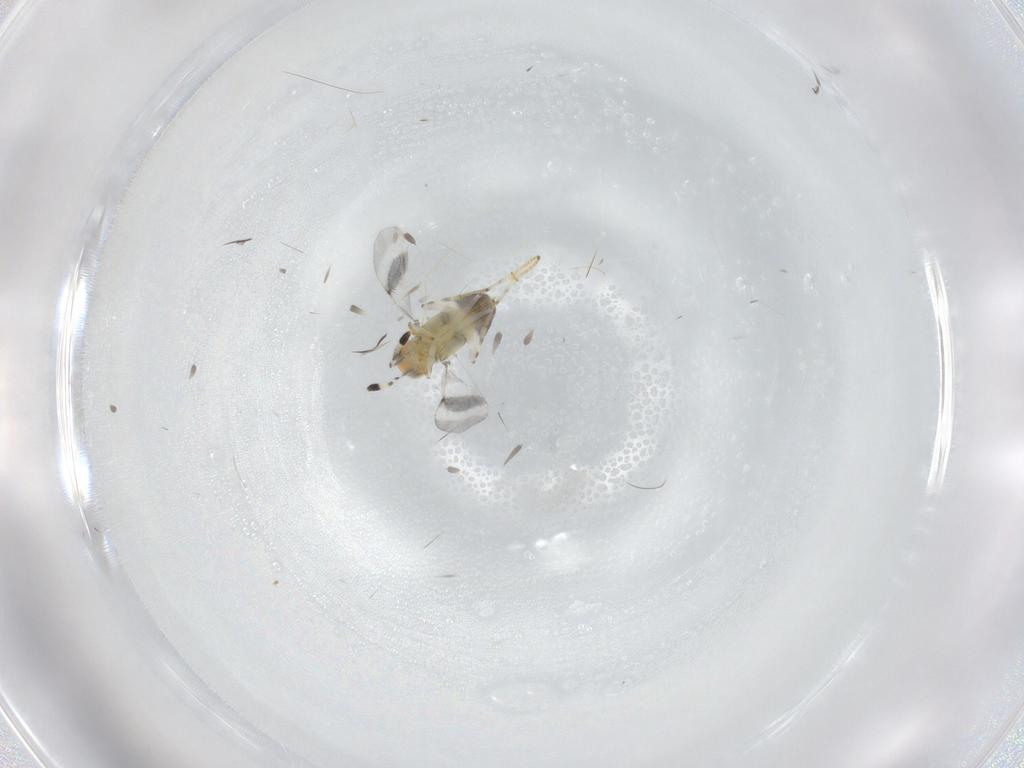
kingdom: Animalia
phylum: Arthropoda
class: Insecta
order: Hymenoptera
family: Encyrtidae
